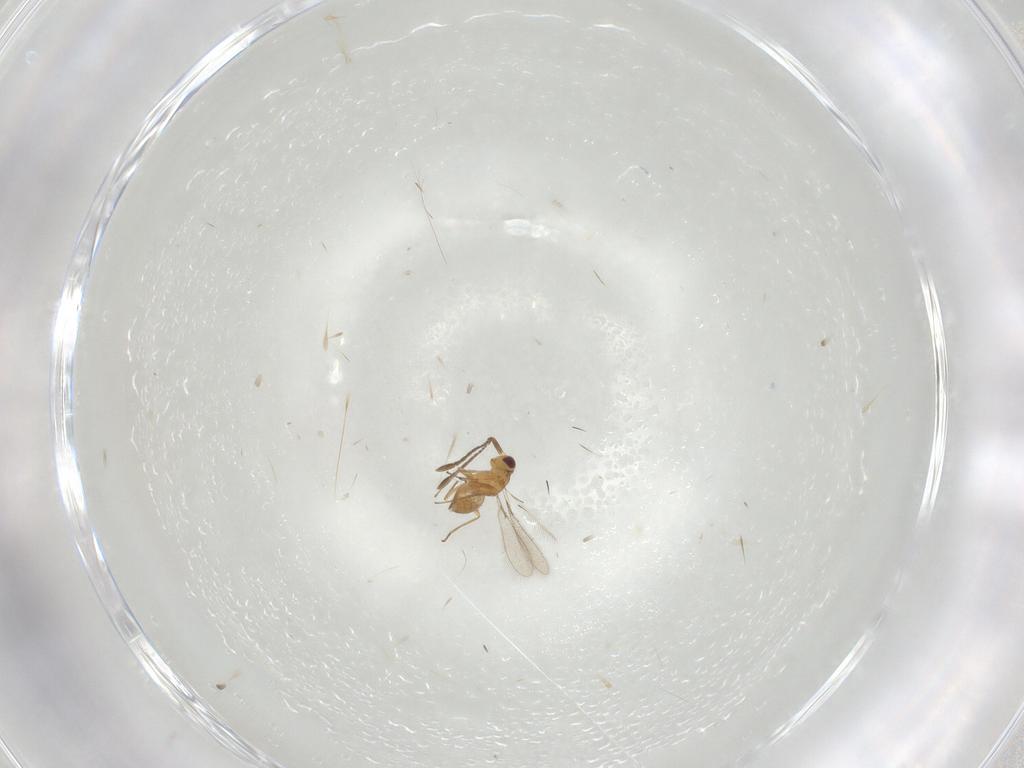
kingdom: Animalia
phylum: Arthropoda
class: Insecta
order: Hymenoptera
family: Mymaridae
